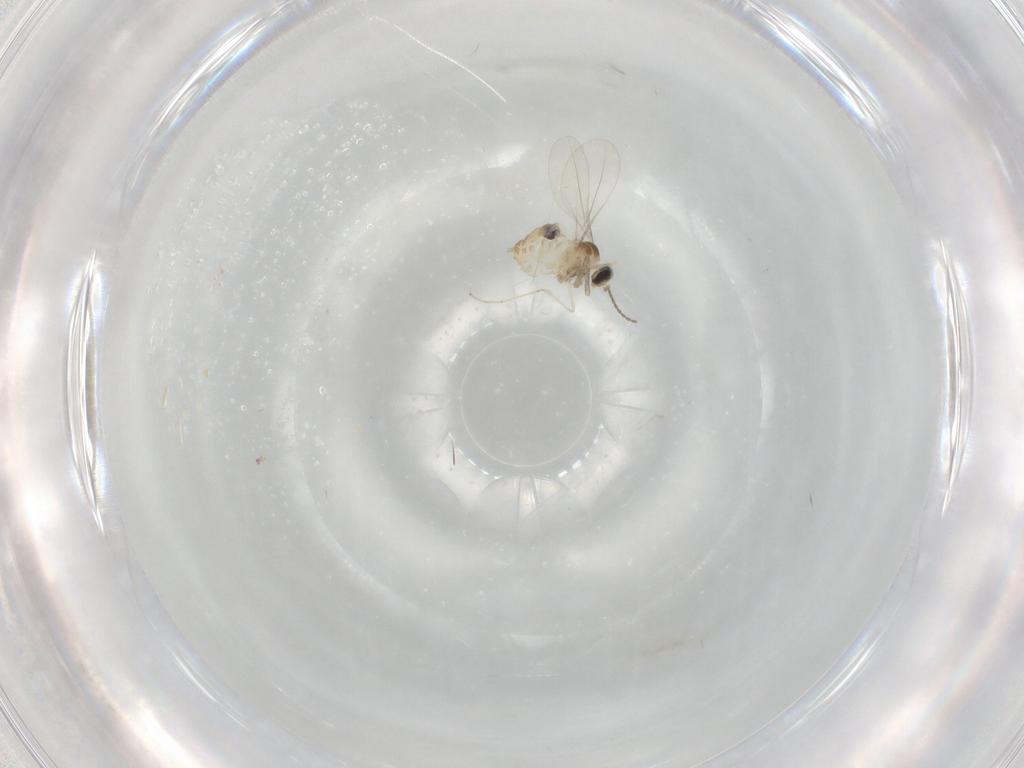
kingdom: Animalia
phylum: Arthropoda
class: Insecta
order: Diptera
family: Cecidomyiidae
